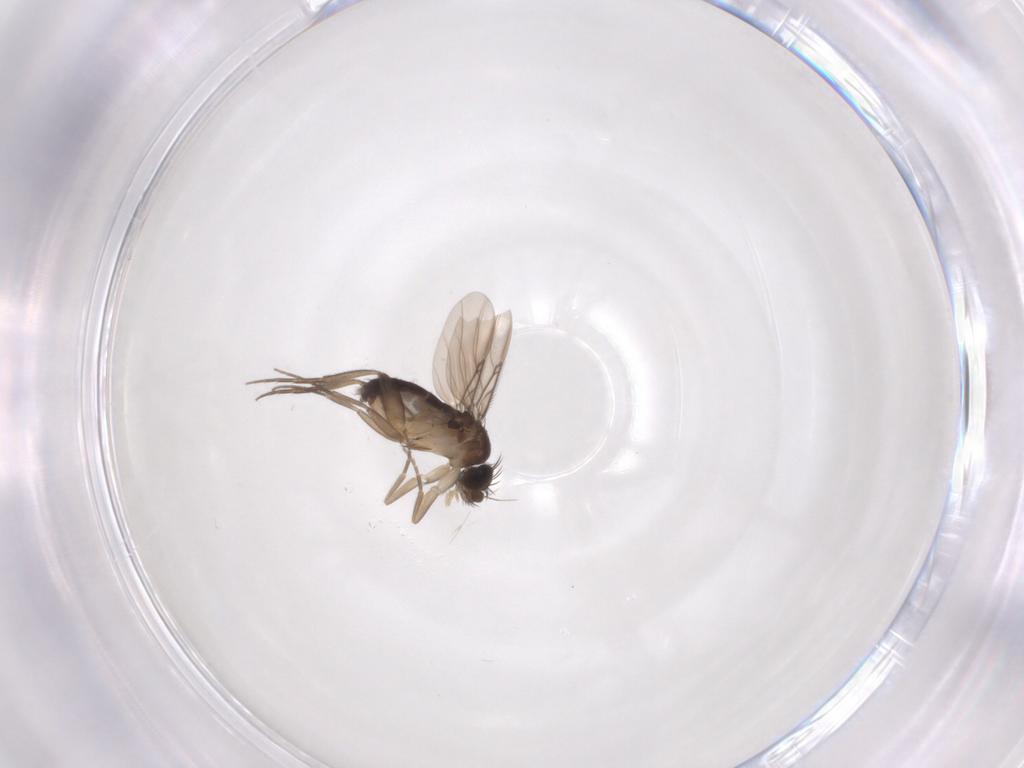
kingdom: Animalia
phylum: Arthropoda
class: Insecta
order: Diptera
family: Phoridae
